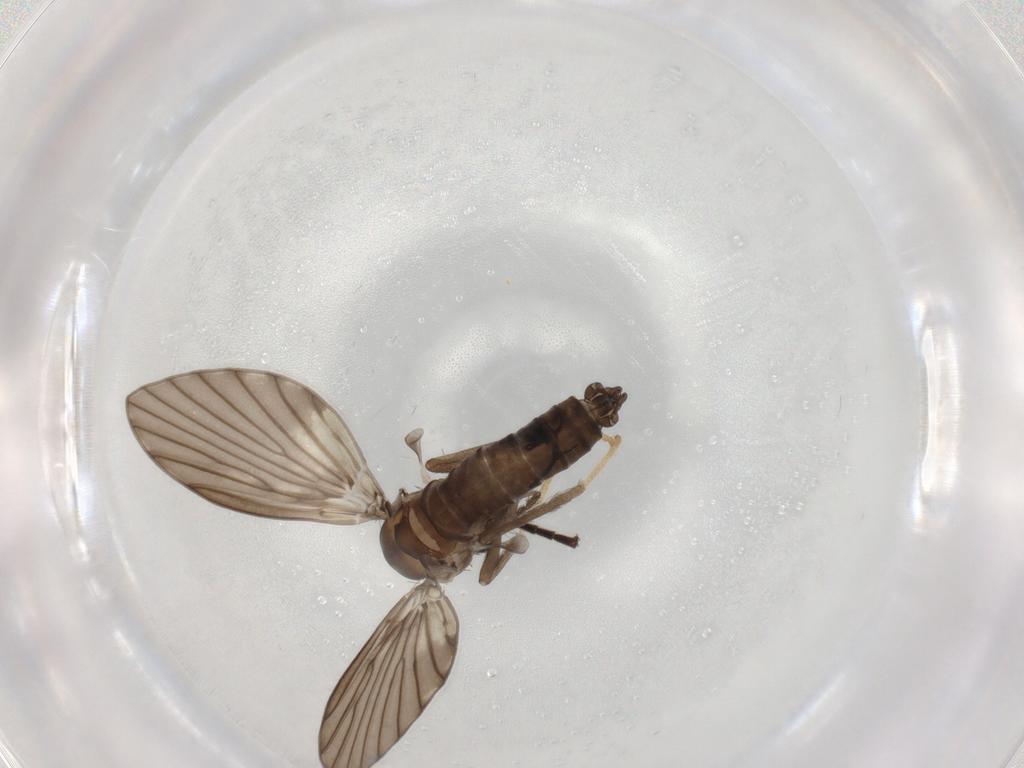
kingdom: Animalia
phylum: Arthropoda
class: Insecta
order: Diptera
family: Psychodidae
